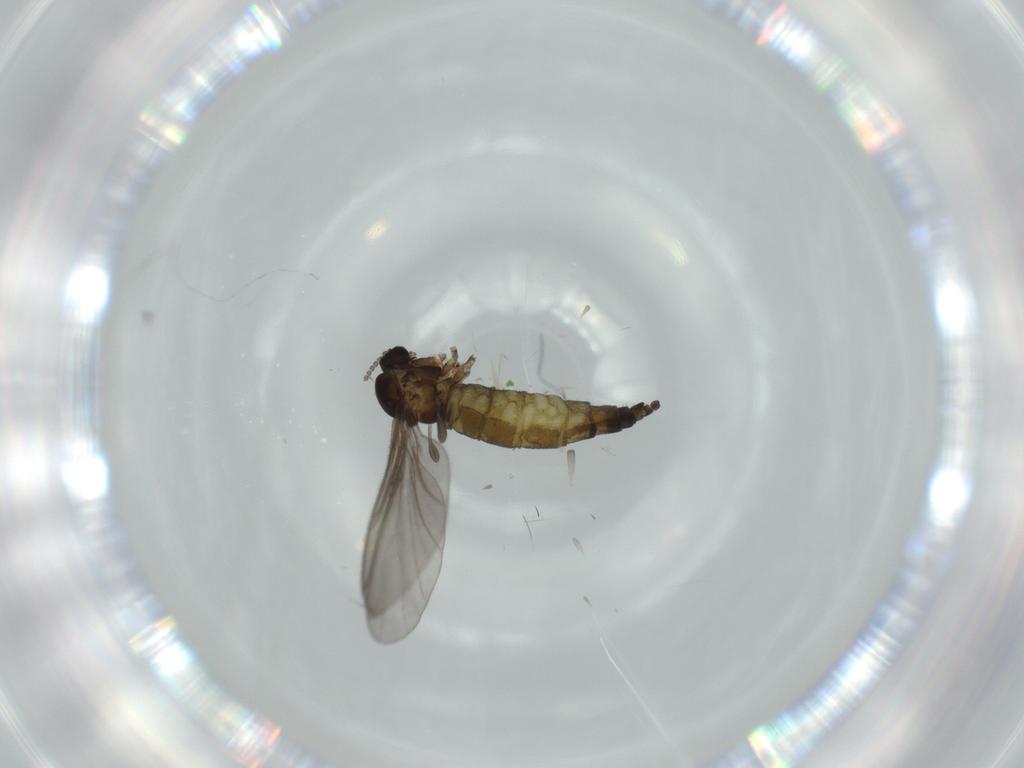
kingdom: Animalia
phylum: Arthropoda
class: Insecta
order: Diptera
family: Sciaridae
